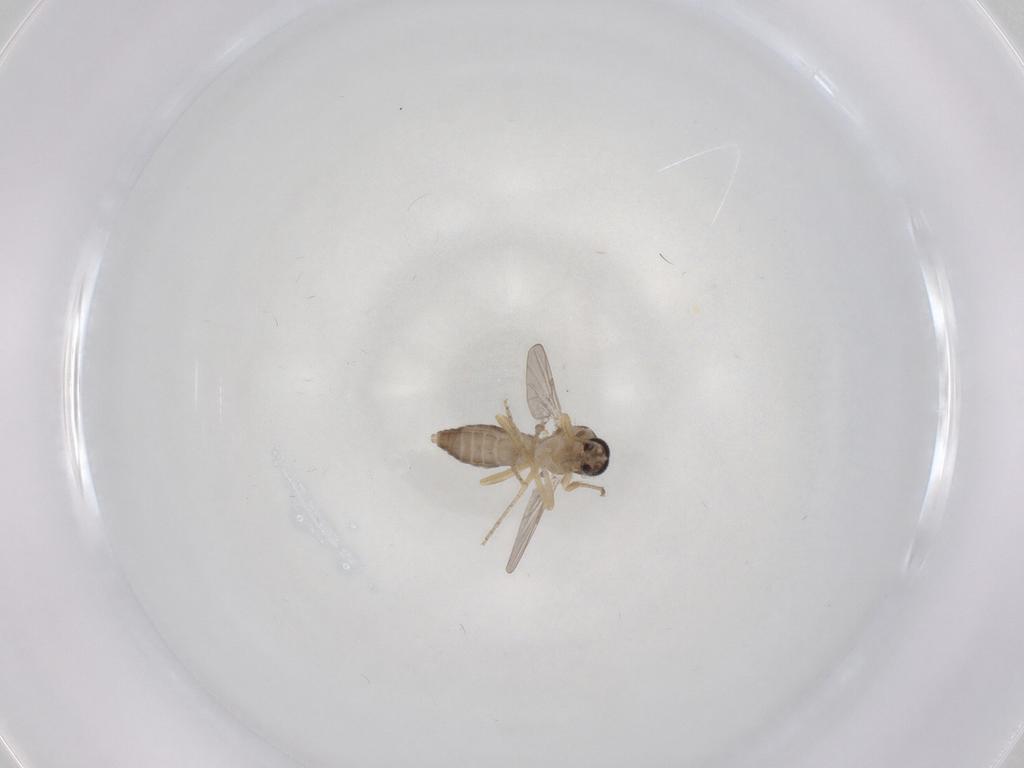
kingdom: Animalia
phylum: Arthropoda
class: Insecta
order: Diptera
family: Ceratopogonidae
